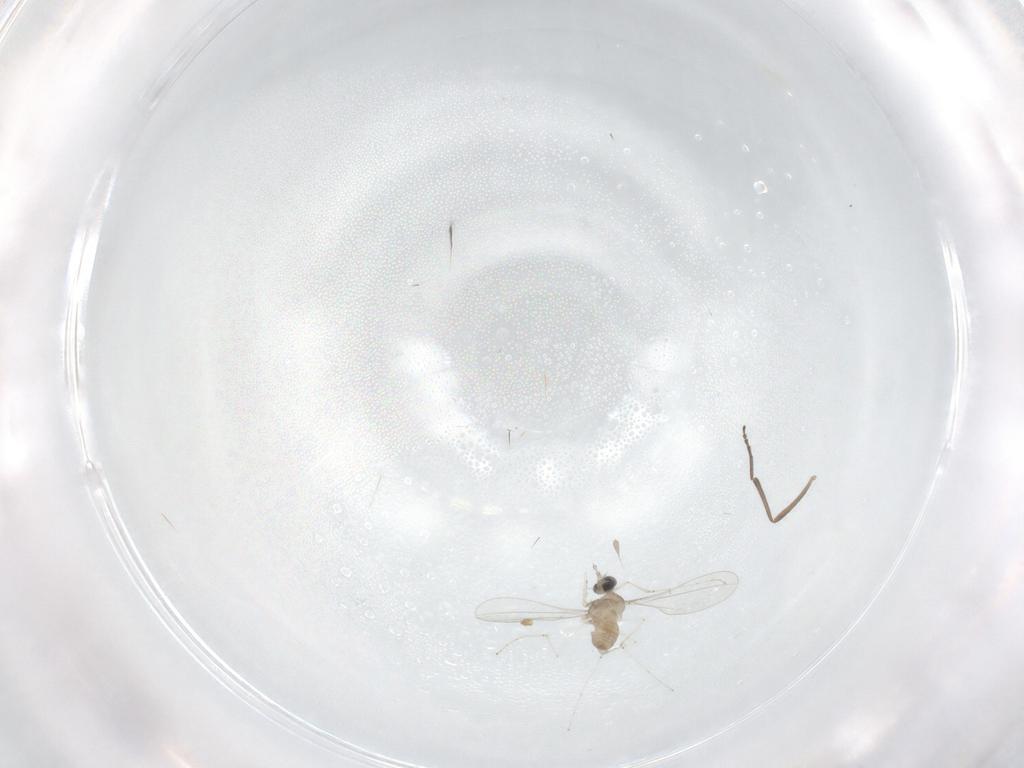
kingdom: Animalia
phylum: Arthropoda
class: Insecta
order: Diptera
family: Cecidomyiidae
